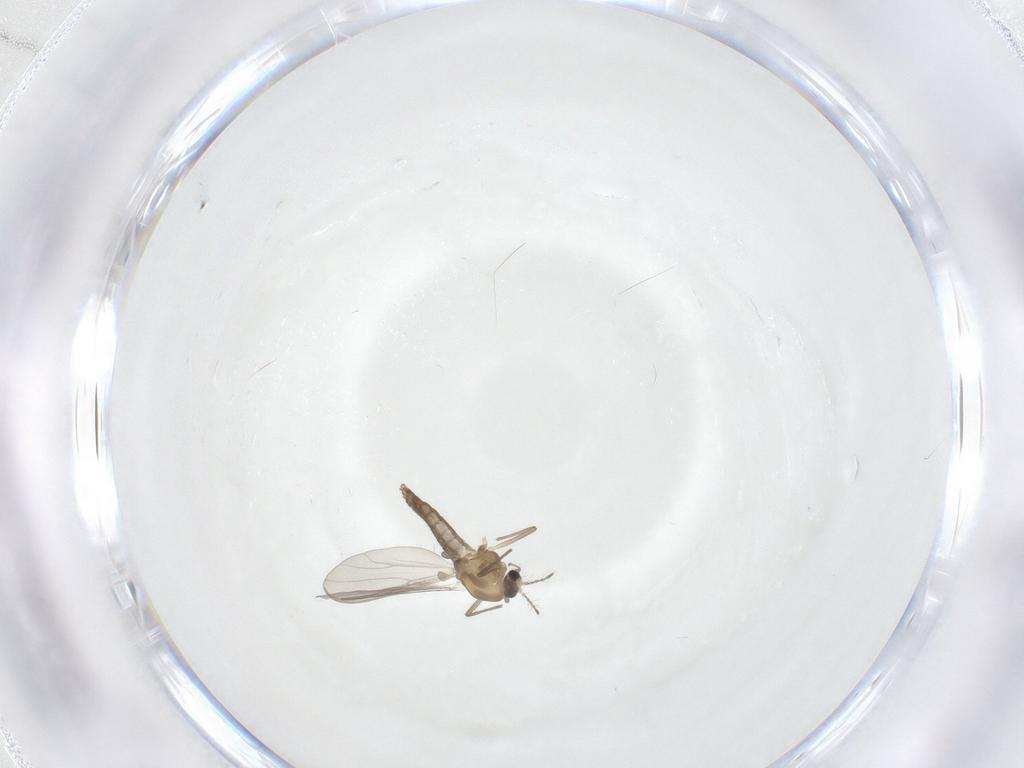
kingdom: Animalia
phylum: Arthropoda
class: Insecta
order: Diptera
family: Chironomidae
